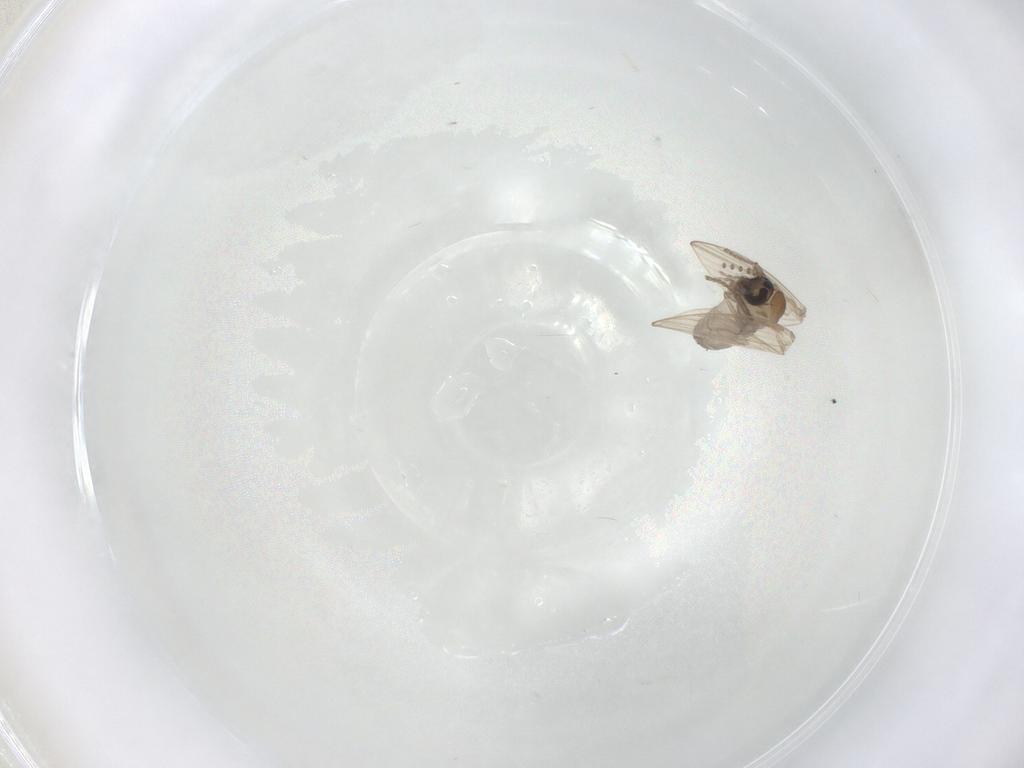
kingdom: Animalia
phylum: Arthropoda
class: Insecta
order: Diptera
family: Psychodidae
